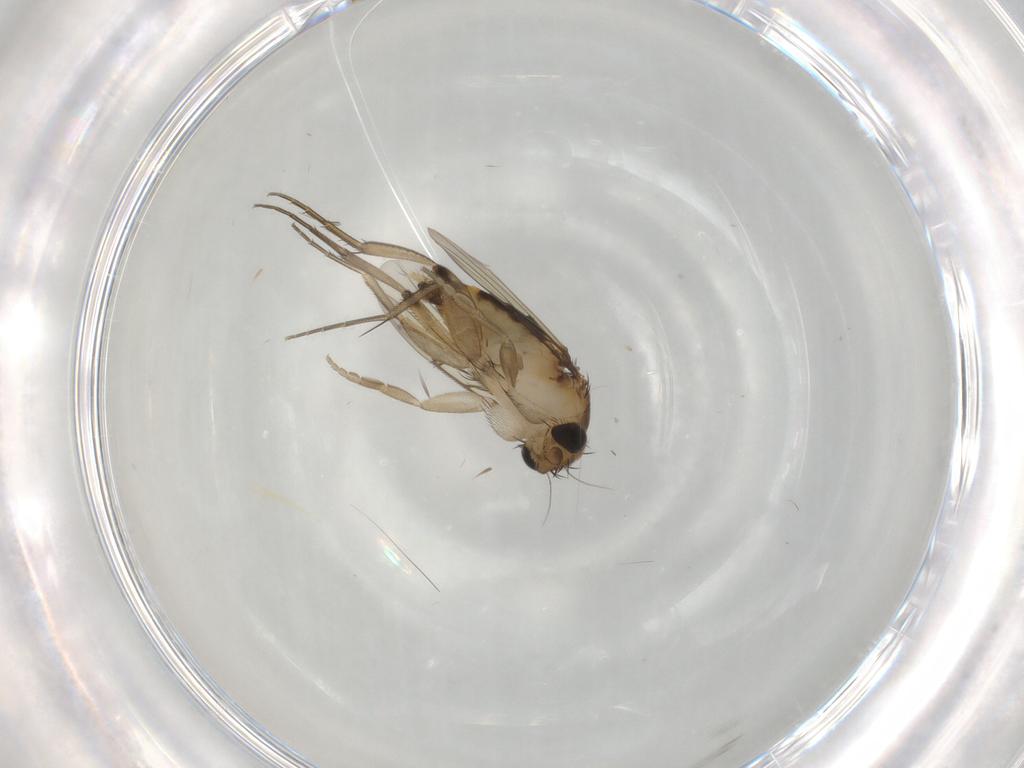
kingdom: Animalia
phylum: Arthropoda
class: Insecta
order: Diptera
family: Phoridae
